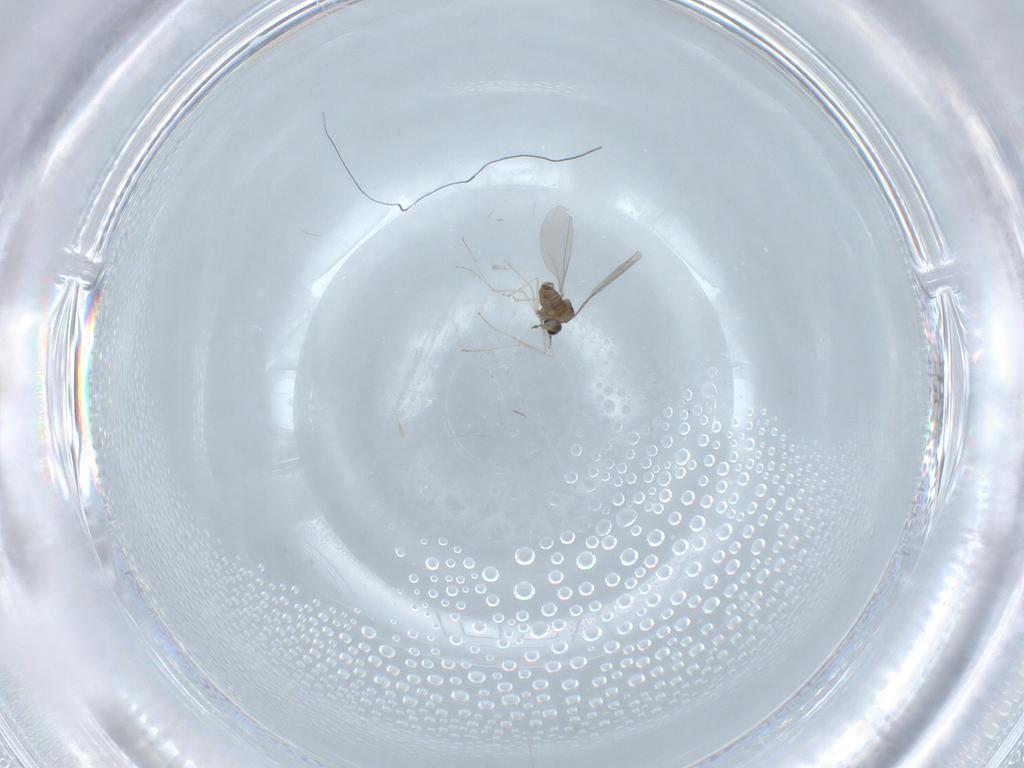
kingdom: Animalia
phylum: Arthropoda
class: Insecta
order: Diptera
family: Cecidomyiidae
